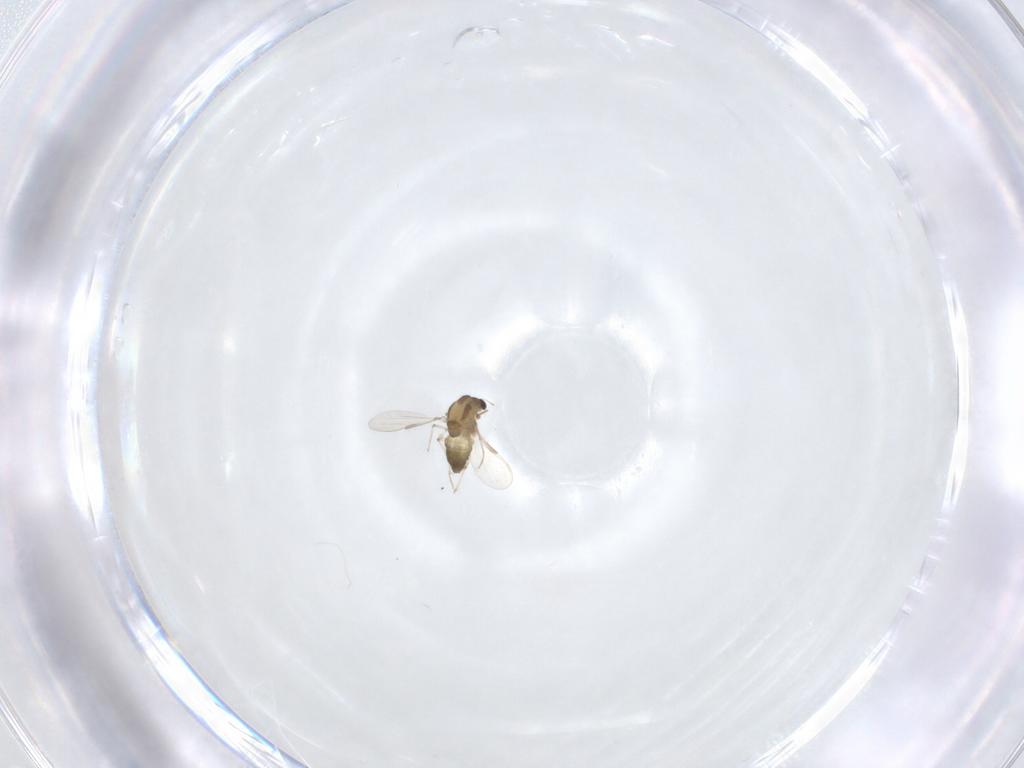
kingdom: Animalia
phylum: Arthropoda
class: Insecta
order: Diptera
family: Chironomidae
